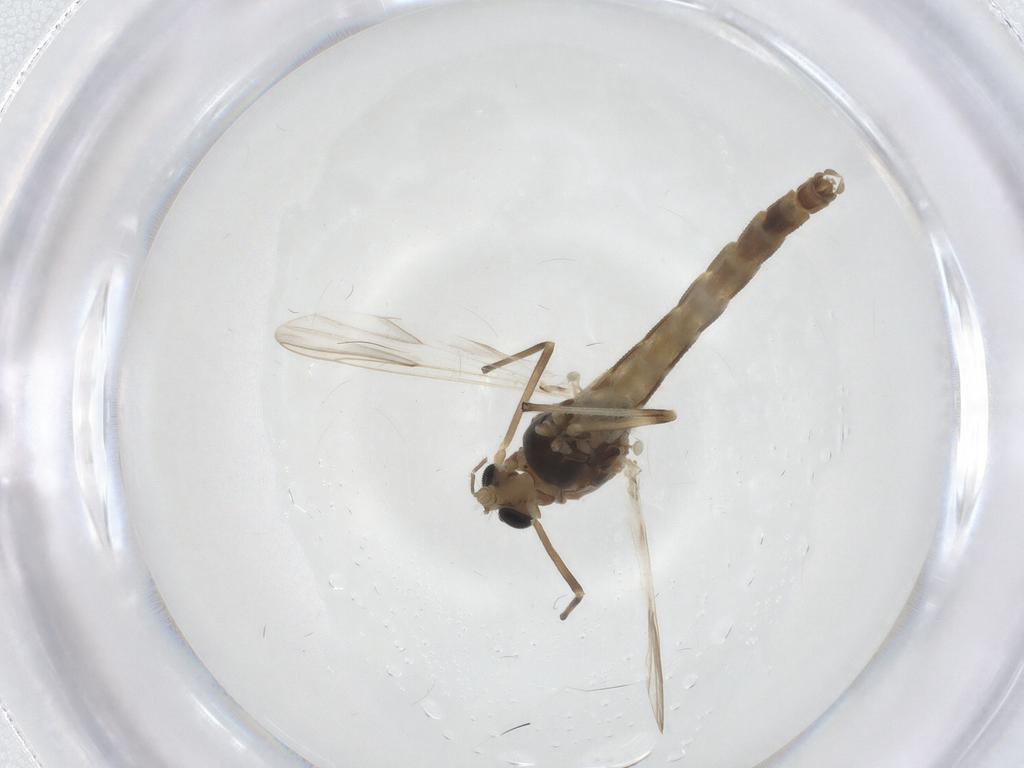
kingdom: Animalia
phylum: Arthropoda
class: Insecta
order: Diptera
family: Chironomidae
